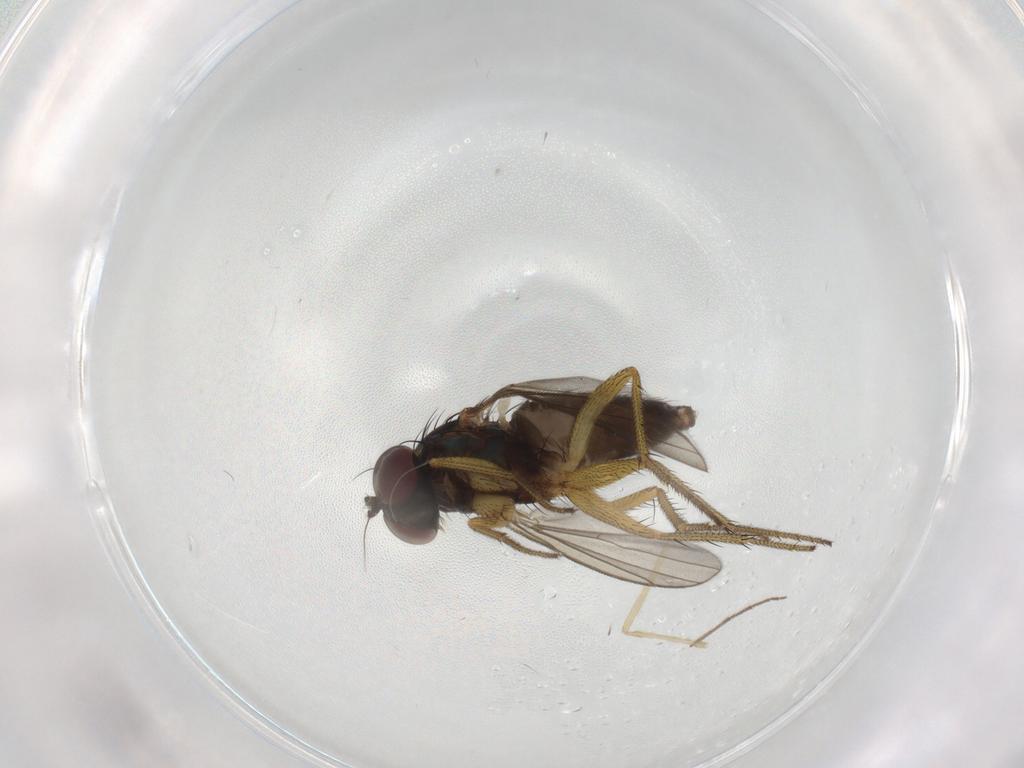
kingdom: Animalia
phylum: Arthropoda
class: Insecta
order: Diptera
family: Dolichopodidae
